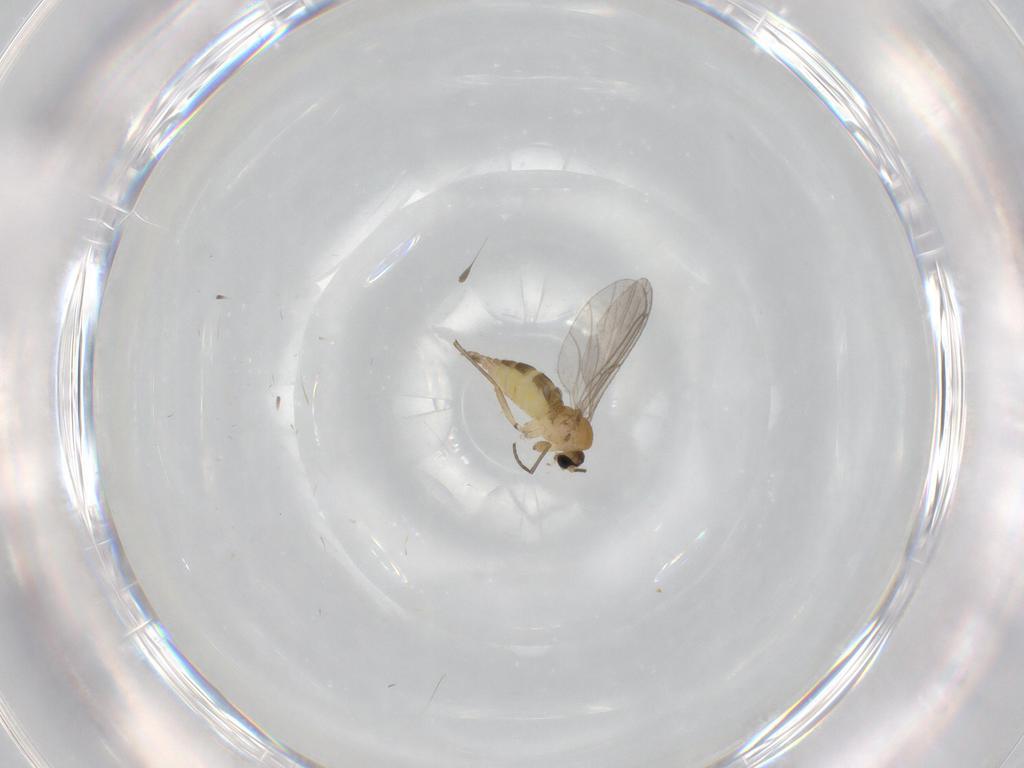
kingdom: Animalia
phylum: Arthropoda
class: Insecta
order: Diptera
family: Sciaridae
